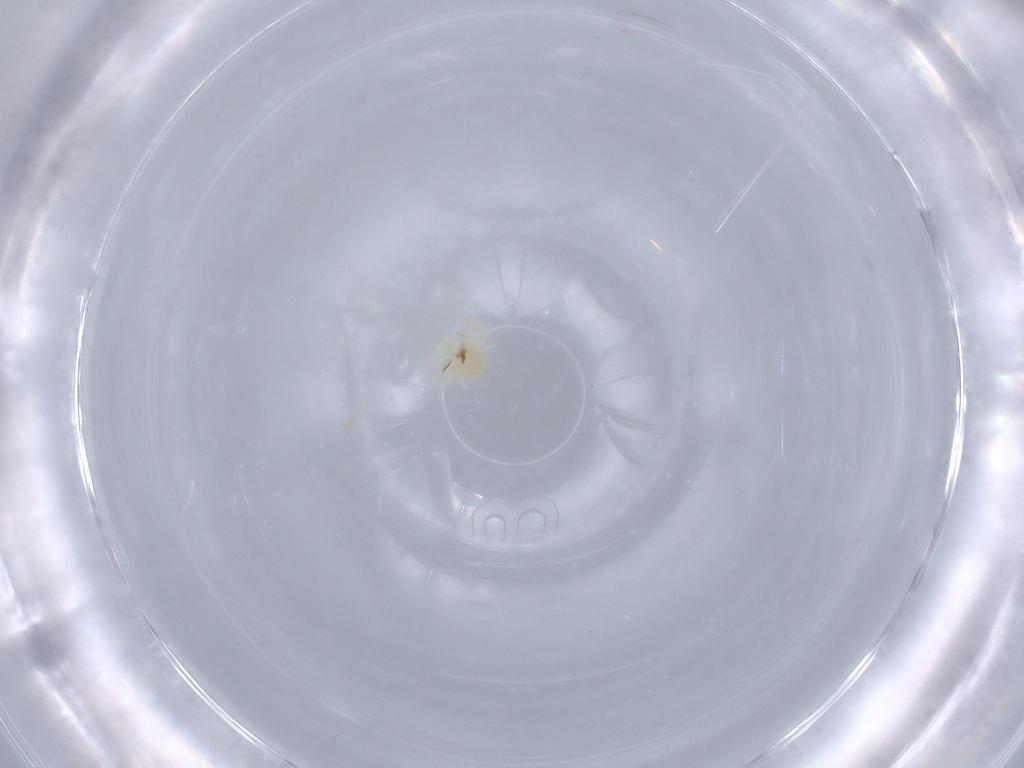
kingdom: Animalia
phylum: Arthropoda
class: Arachnida
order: Trombidiformes
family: Anystidae
